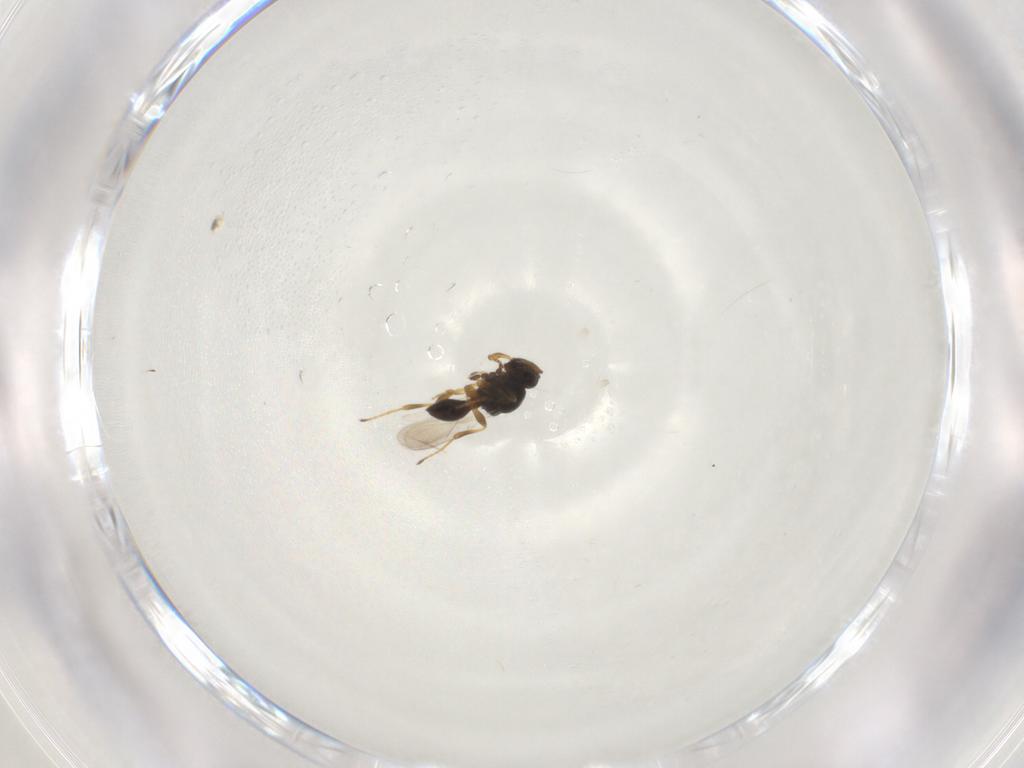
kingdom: Animalia
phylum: Arthropoda
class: Insecta
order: Hymenoptera
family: Platygastridae
